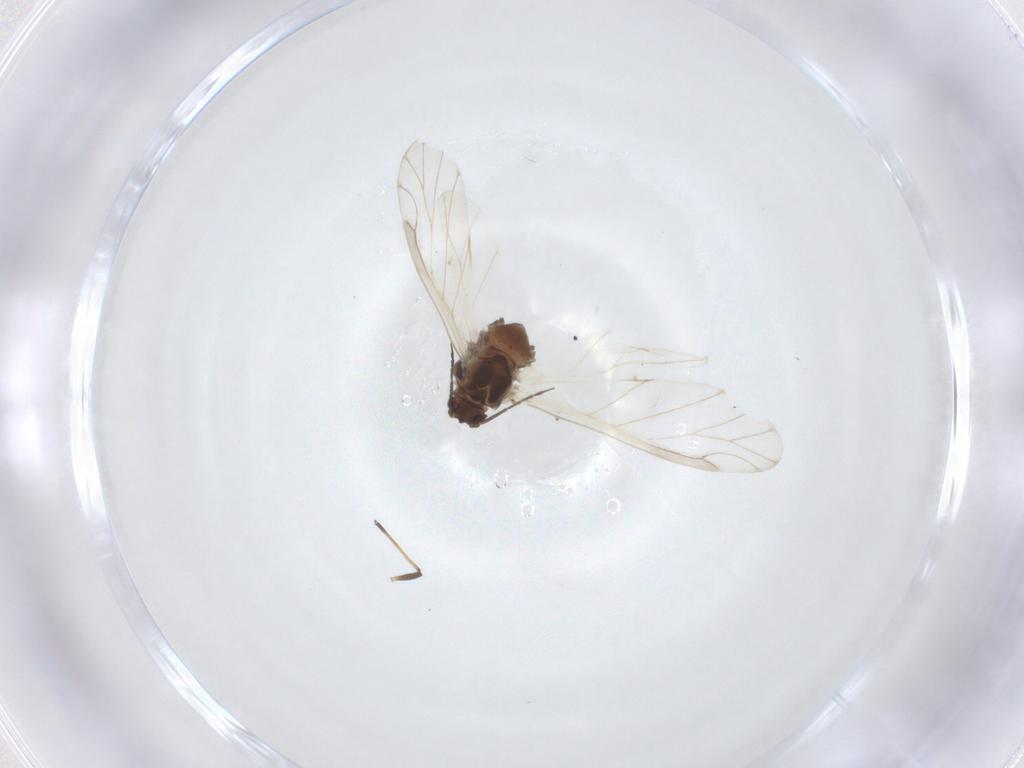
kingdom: Animalia
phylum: Arthropoda
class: Insecta
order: Hemiptera
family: Aphididae
